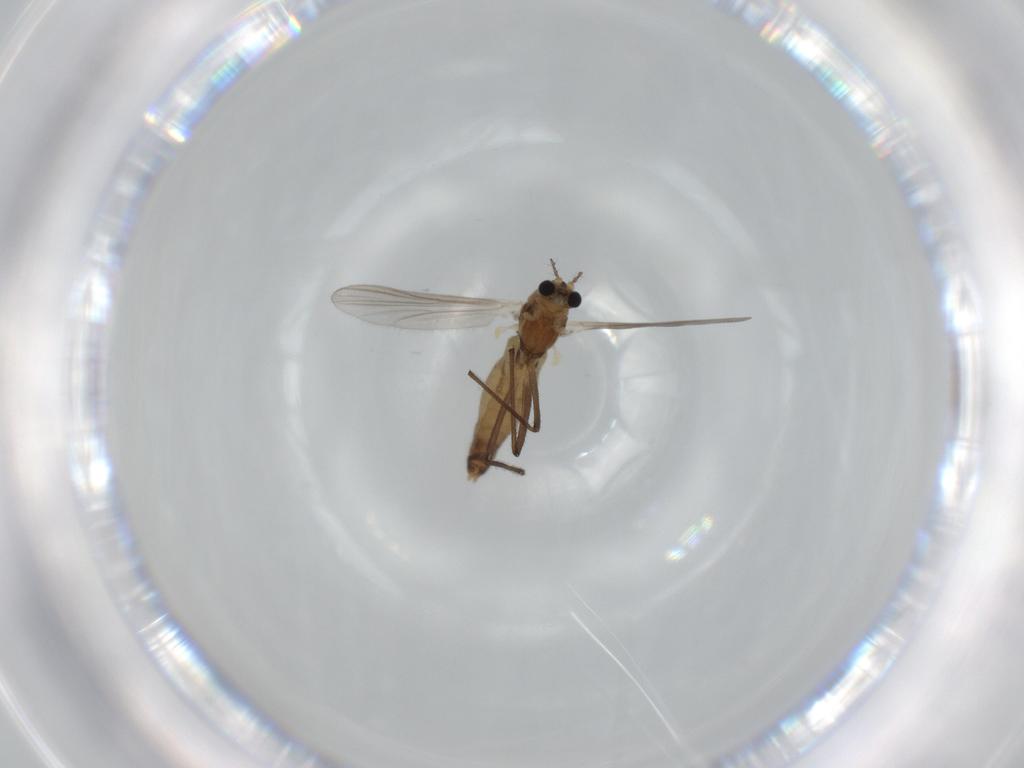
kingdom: Animalia
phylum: Arthropoda
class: Insecta
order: Diptera
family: Chironomidae
